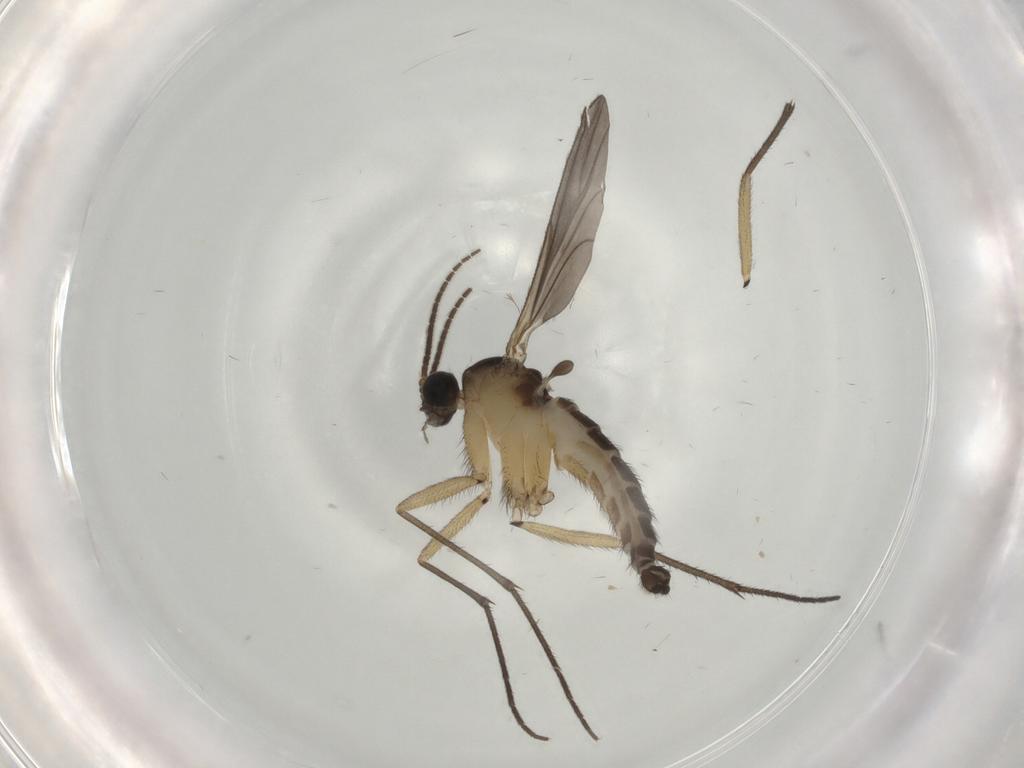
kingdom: Animalia
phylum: Arthropoda
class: Insecta
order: Diptera
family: Sciaridae
